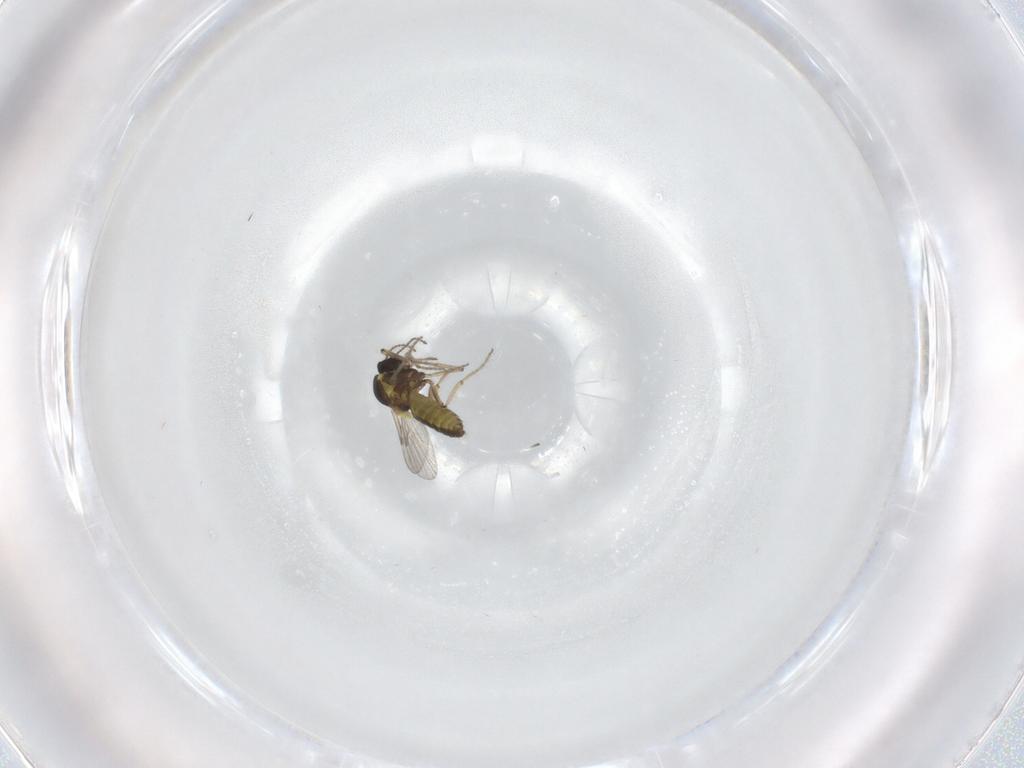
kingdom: Animalia
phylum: Arthropoda
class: Insecta
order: Diptera
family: Ceratopogonidae
